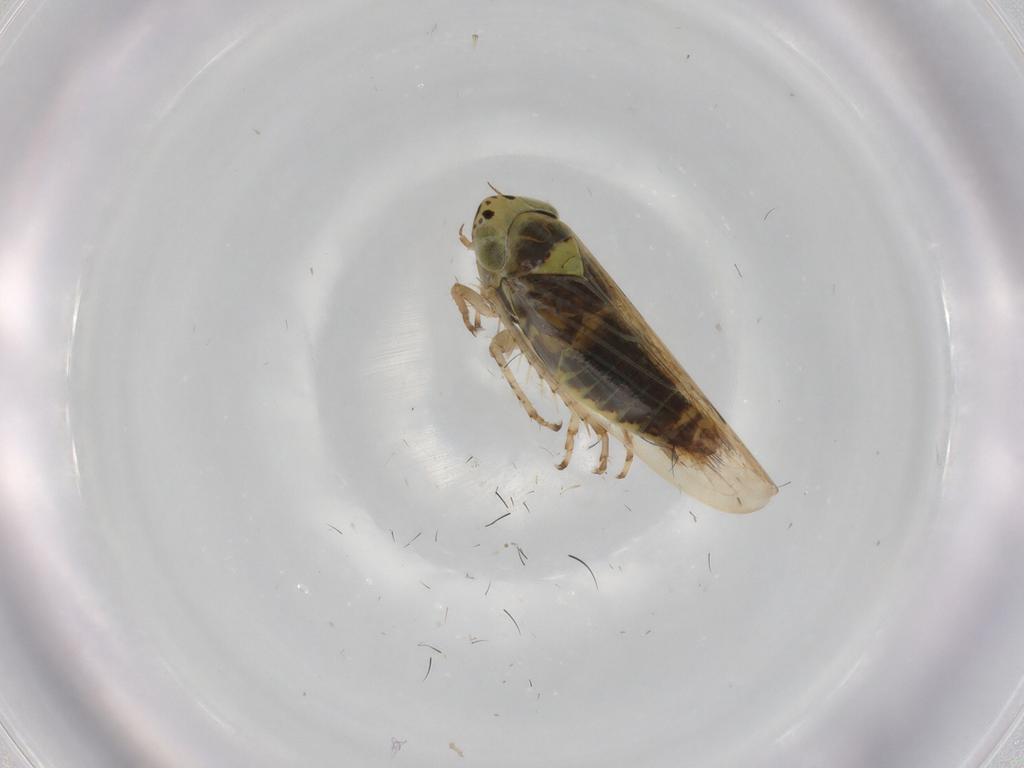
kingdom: Animalia
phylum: Arthropoda
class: Insecta
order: Hemiptera
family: Cicadellidae
